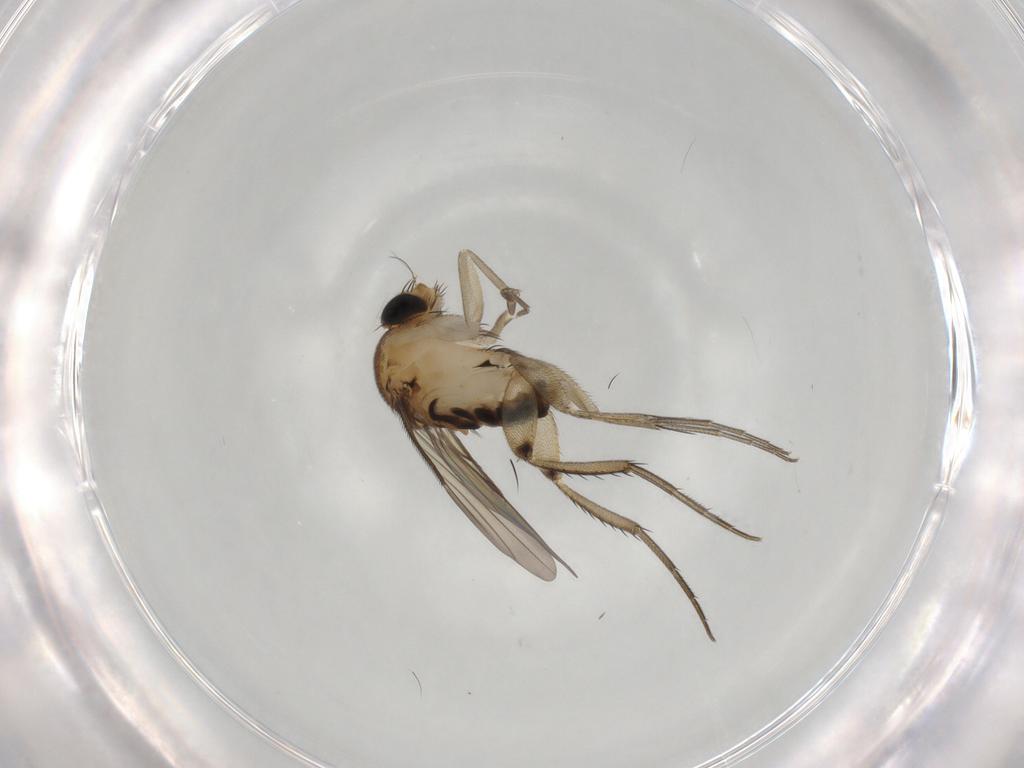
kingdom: Animalia
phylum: Arthropoda
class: Insecta
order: Diptera
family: Phoridae
